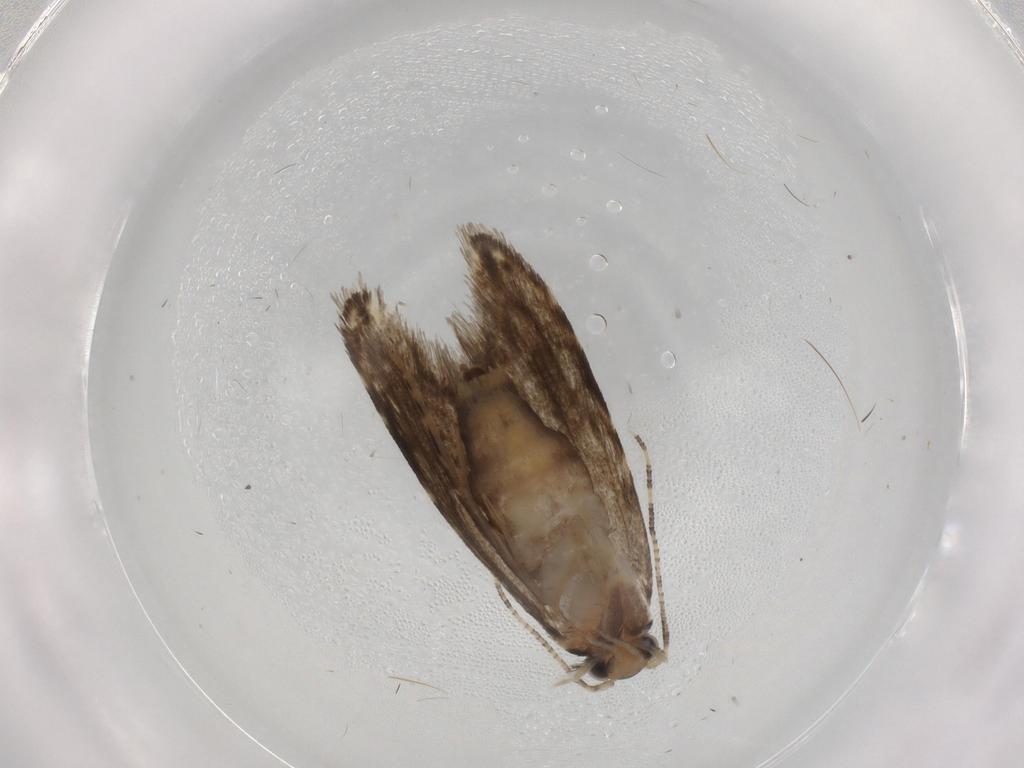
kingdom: Animalia
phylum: Arthropoda
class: Insecta
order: Lepidoptera
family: Tineidae
